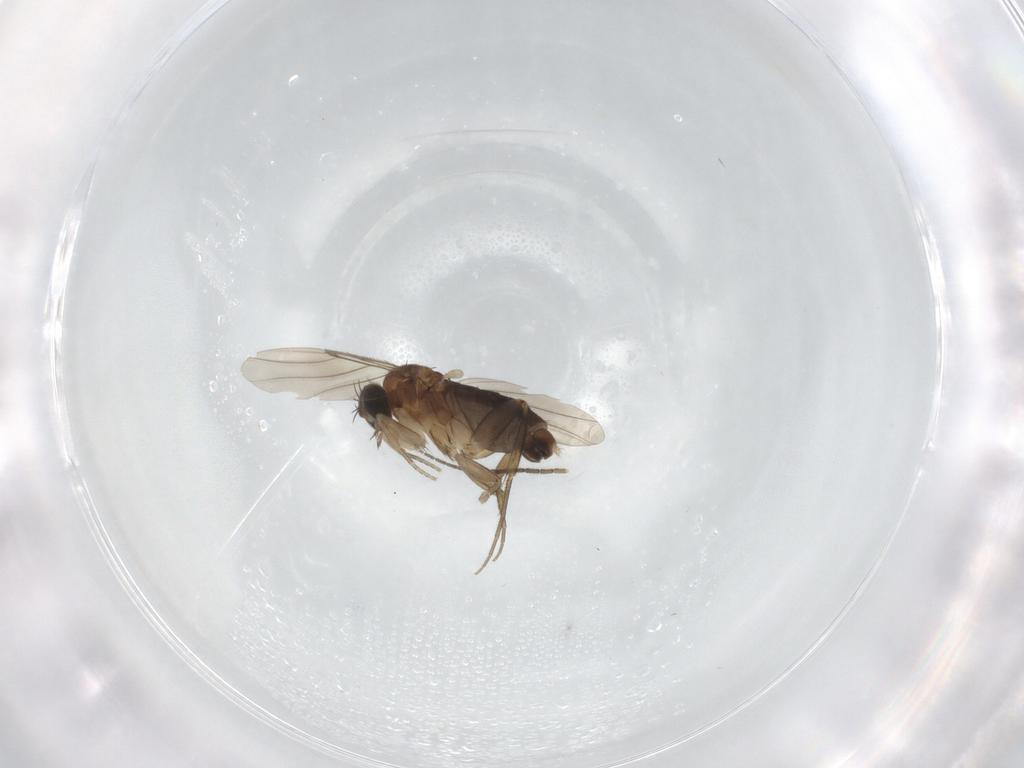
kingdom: Animalia
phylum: Arthropoda
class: Insecta
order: Diptera
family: Phoridae
